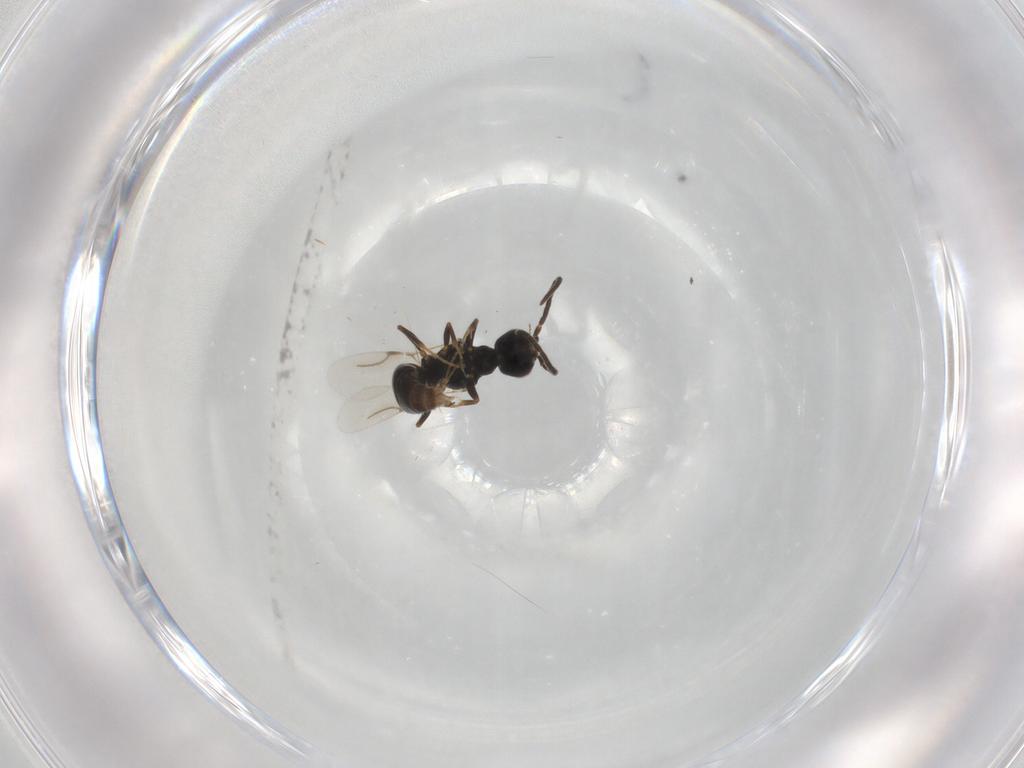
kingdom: Animalia
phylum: Arthropoda
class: Insecta
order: Hymenoptera
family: Bethylidae
